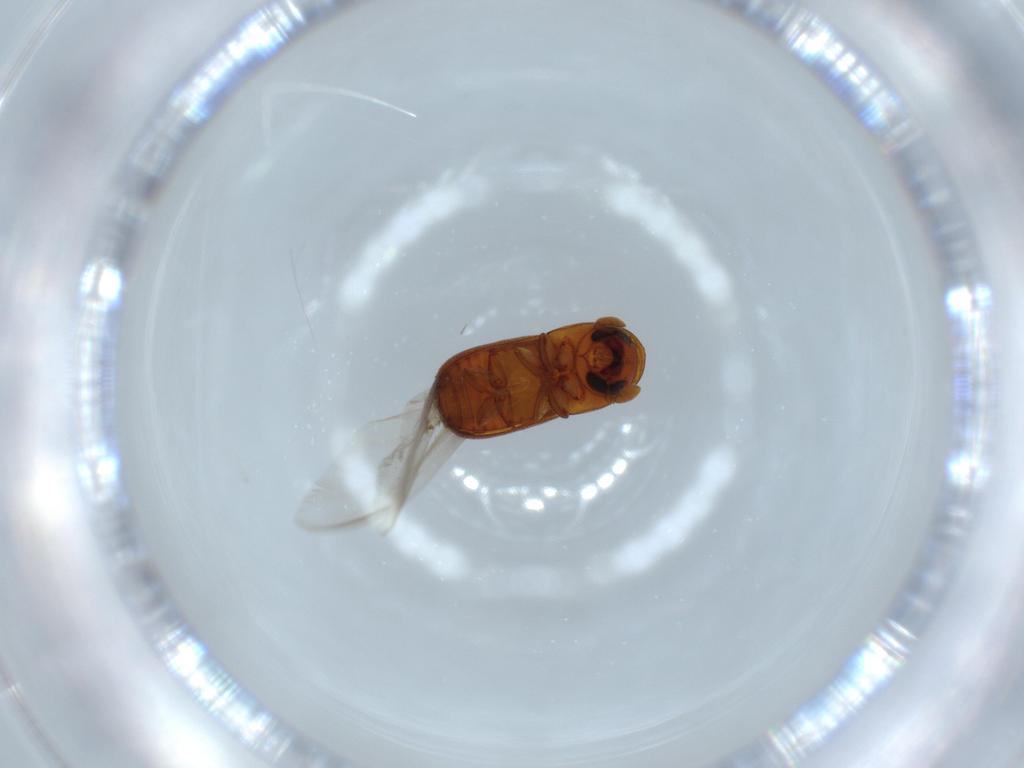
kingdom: Animalia
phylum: Arthropoda
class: Insecta
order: Coleoptera
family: Curculionidae
